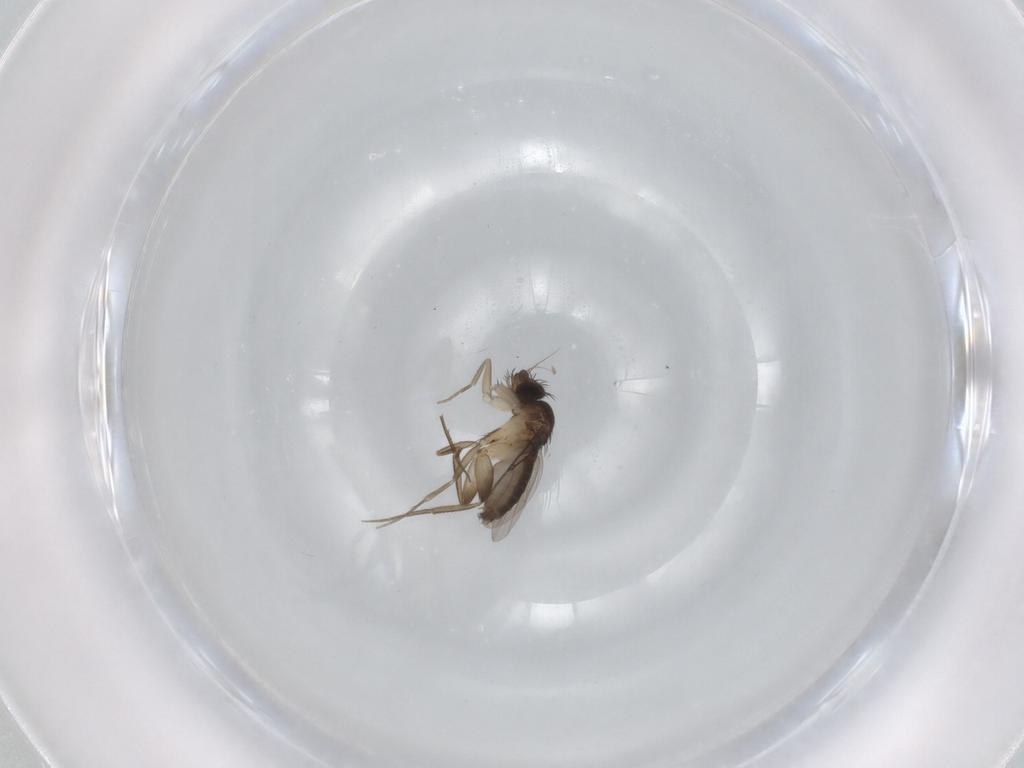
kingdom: Animalia
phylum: Arthropoda
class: Insecta
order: Diptera
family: Phoridae
